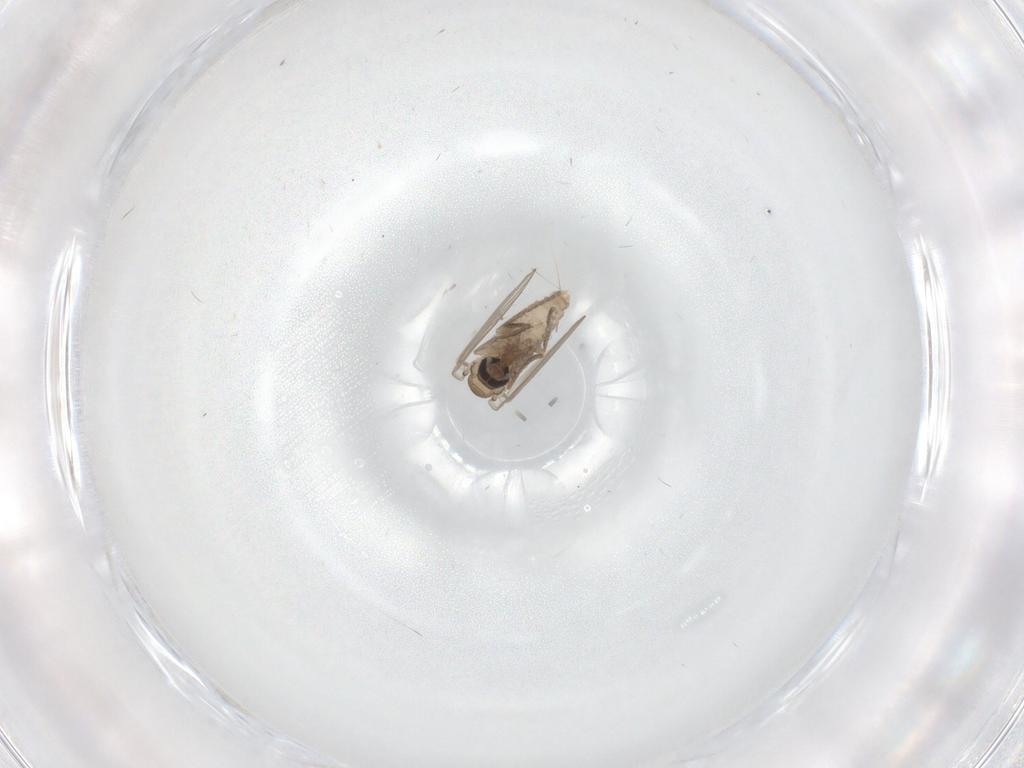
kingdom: Animalia
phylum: Arthropoda
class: Insecta
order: Diptera
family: Psychodidae
